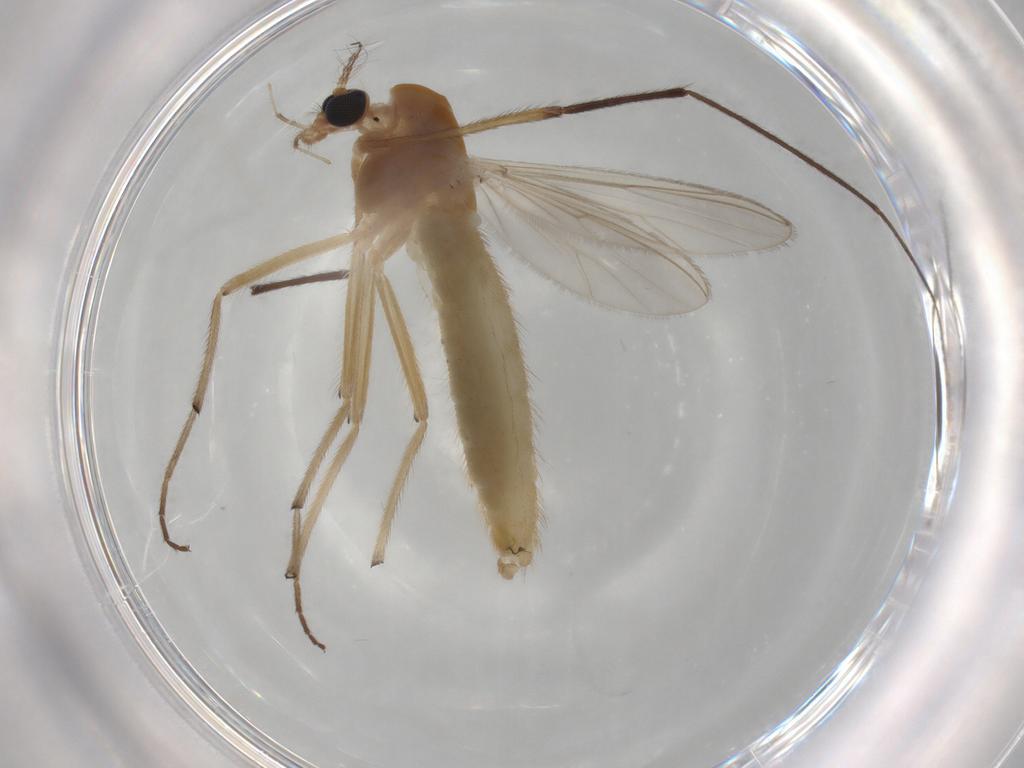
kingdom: Animalia
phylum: Arthropoda
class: Insecta
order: Diptera
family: Chironomidae
